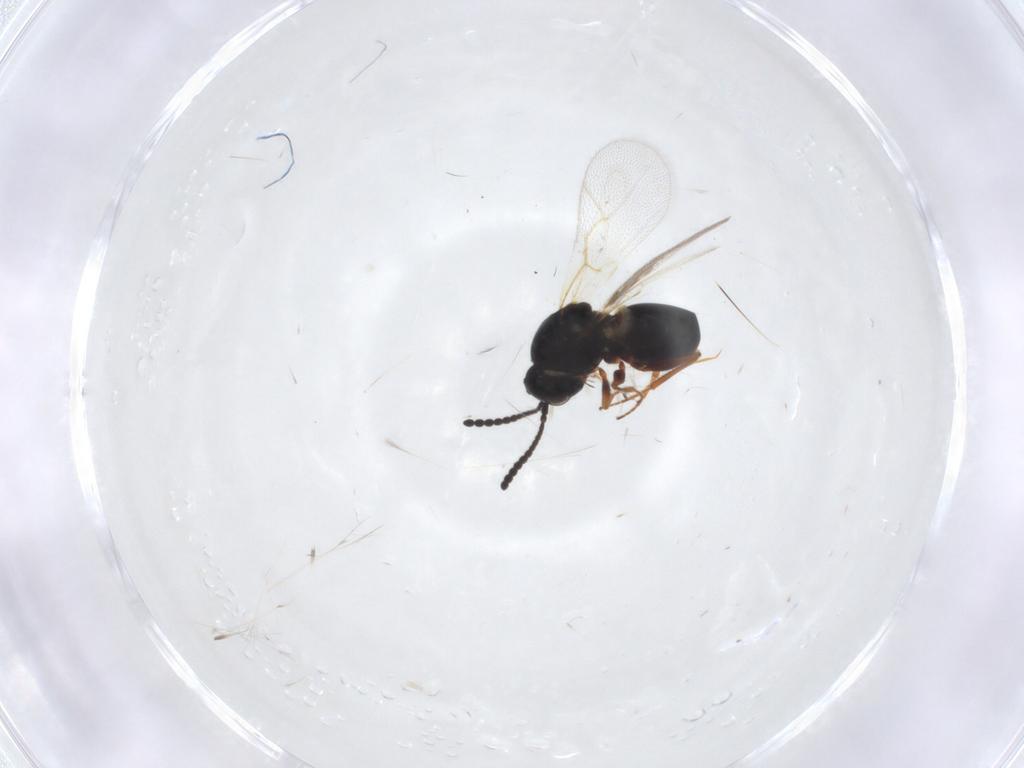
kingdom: Animalia
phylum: Arthropoda
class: Insecta
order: Hymenoptera
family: Figitidae
